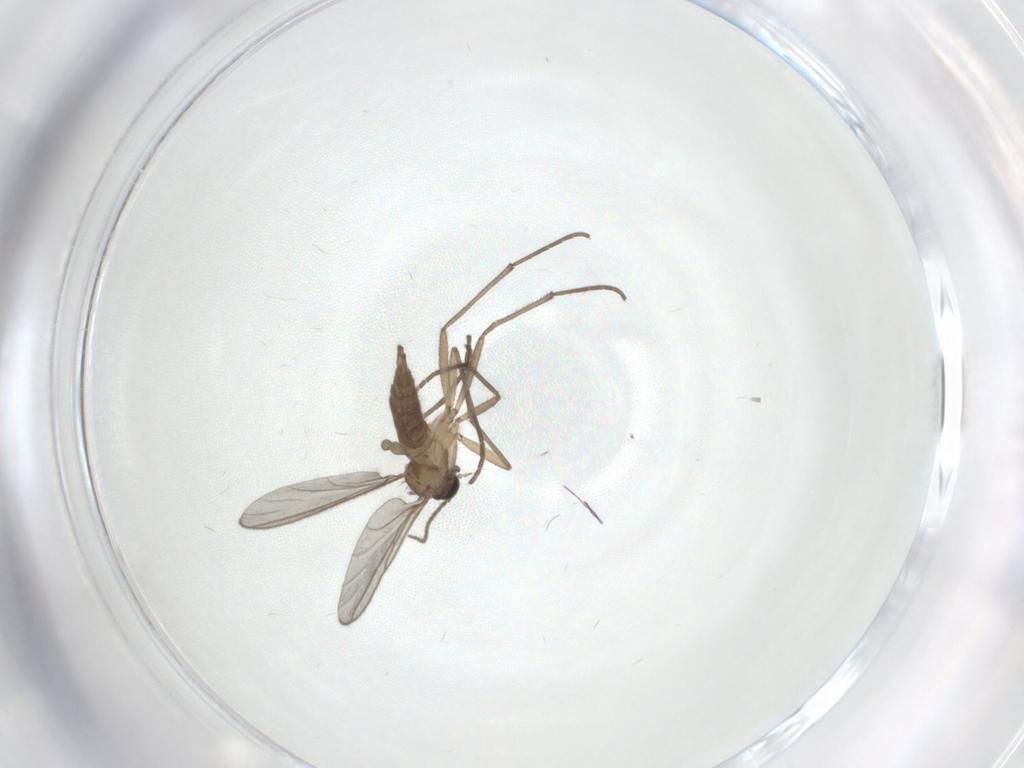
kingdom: Animalia
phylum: Arthropoda
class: Insecta
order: Diptera
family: Sciaridae
